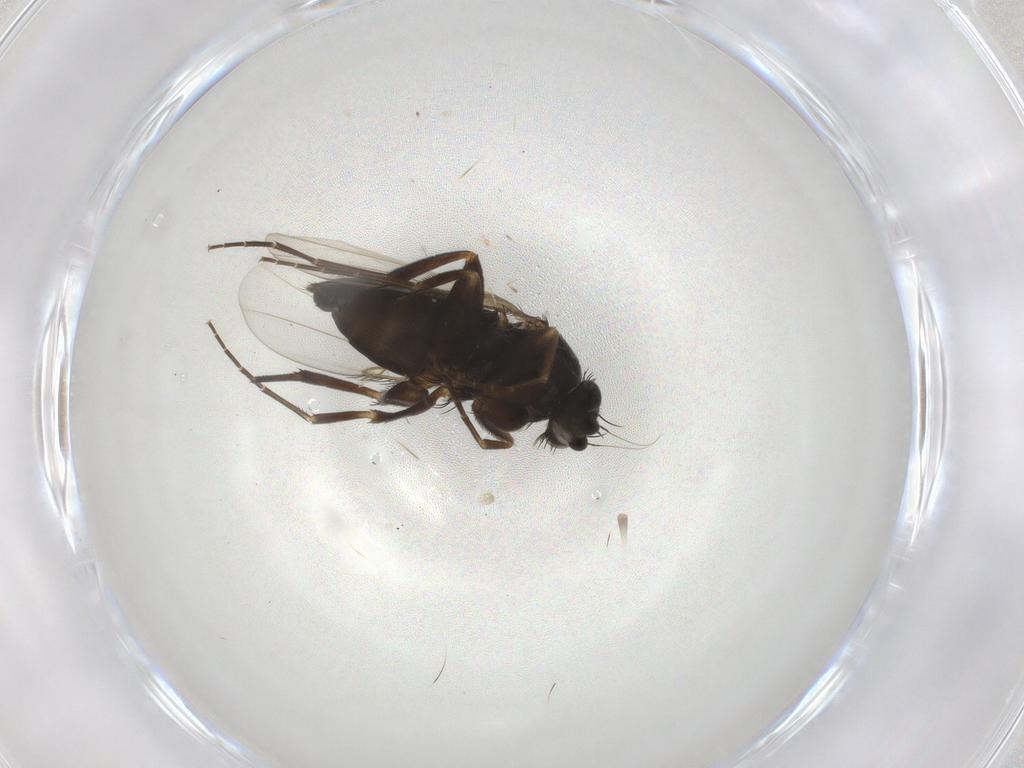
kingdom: Animalia
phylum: Arthropoda
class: Insecta
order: Diptera
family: Phoridae
